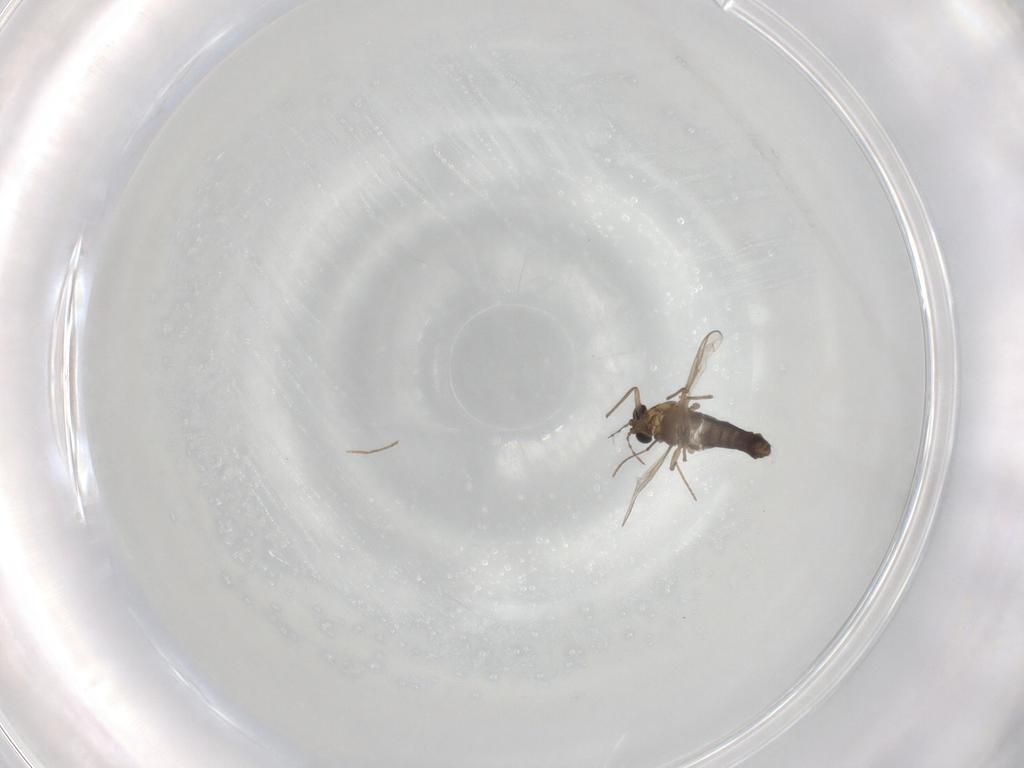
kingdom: Animalia
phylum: Arthropoda
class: Insecta
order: Diptera
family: Chironomidae
